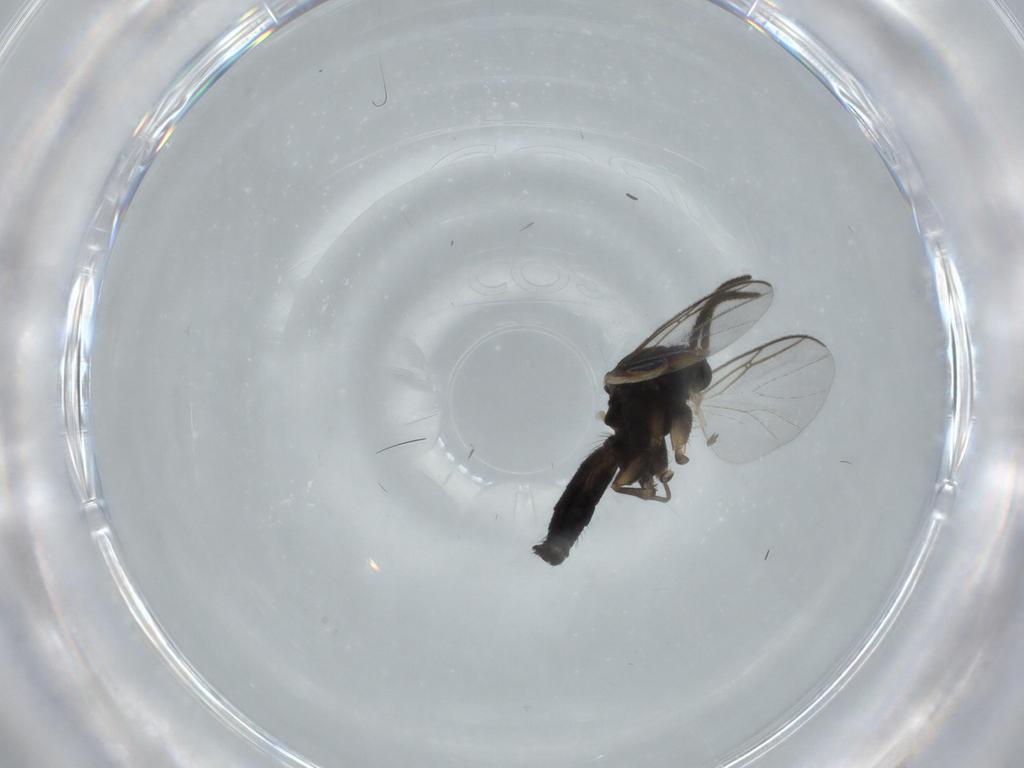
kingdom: Animalia
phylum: Arthropoda
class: Insecta
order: Diptera
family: Mycetophilidae
